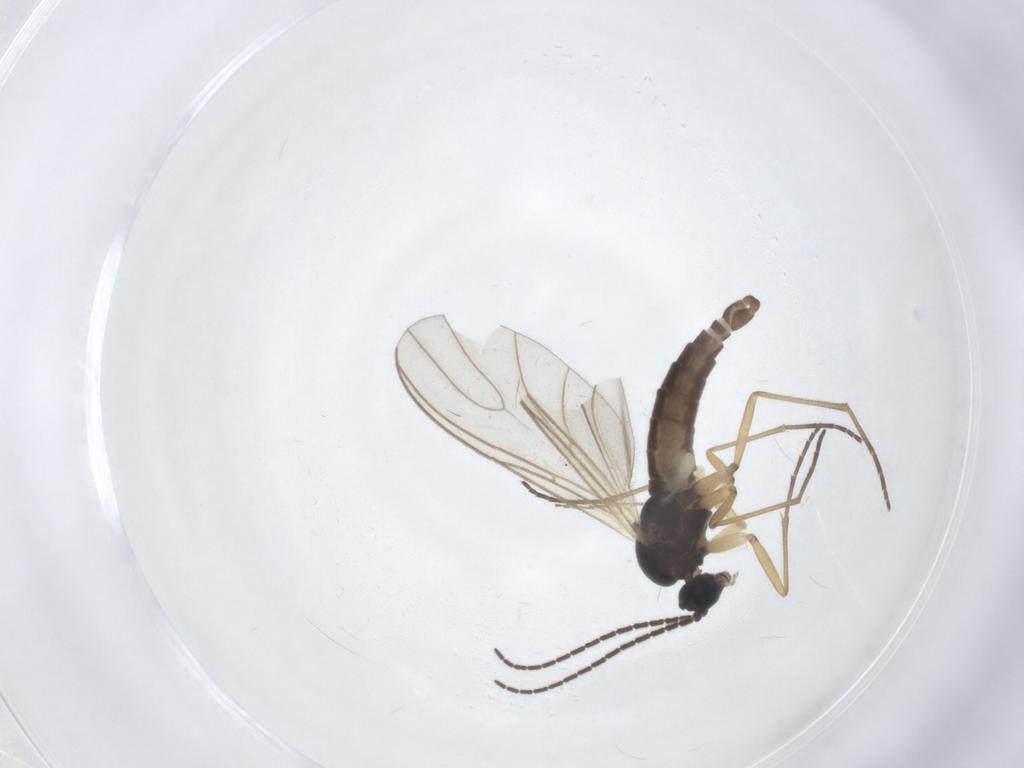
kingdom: Animalia
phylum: Arthropoda
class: Insecta
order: Diptera
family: Sciaridae
